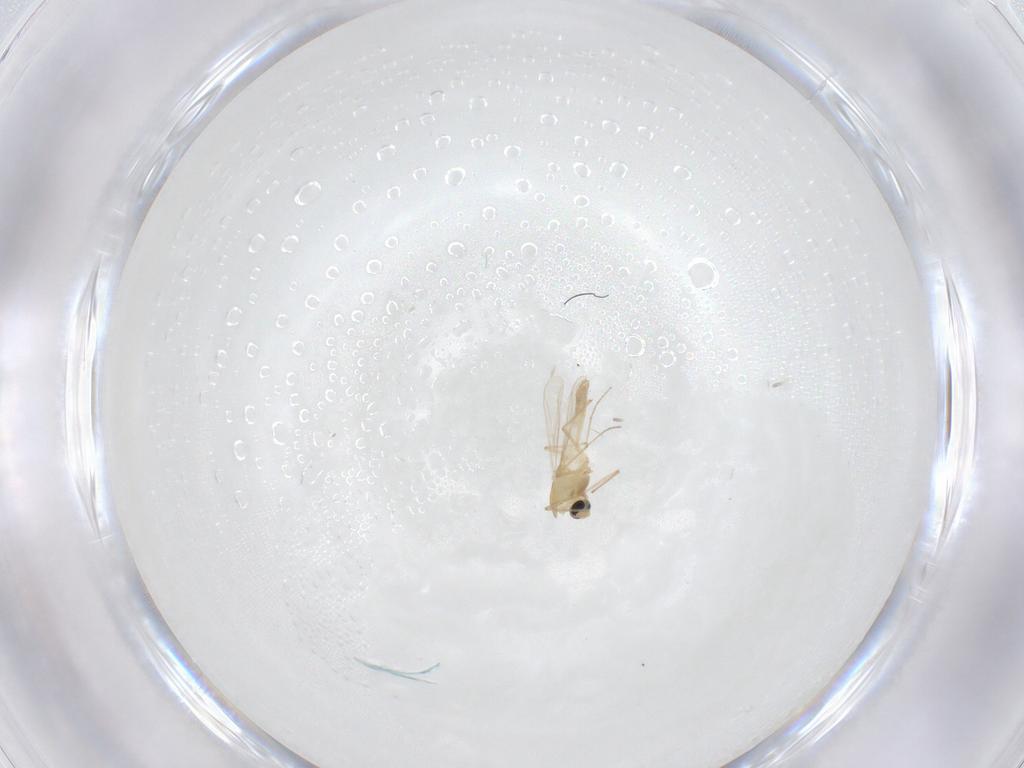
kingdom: Animalia
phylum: Arthropoda
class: Insecta
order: Diptera
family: Chironomidae
